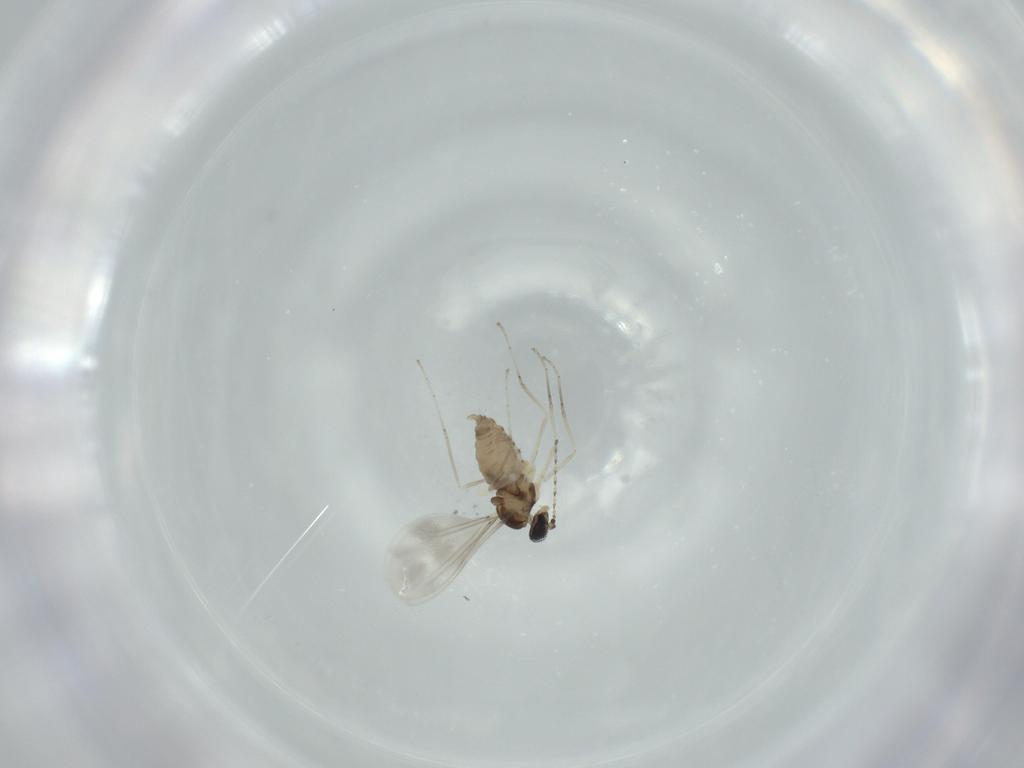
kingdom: Animalia
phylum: Arthropoda
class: Insecta
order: Diptera
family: Cecidomyiidae
